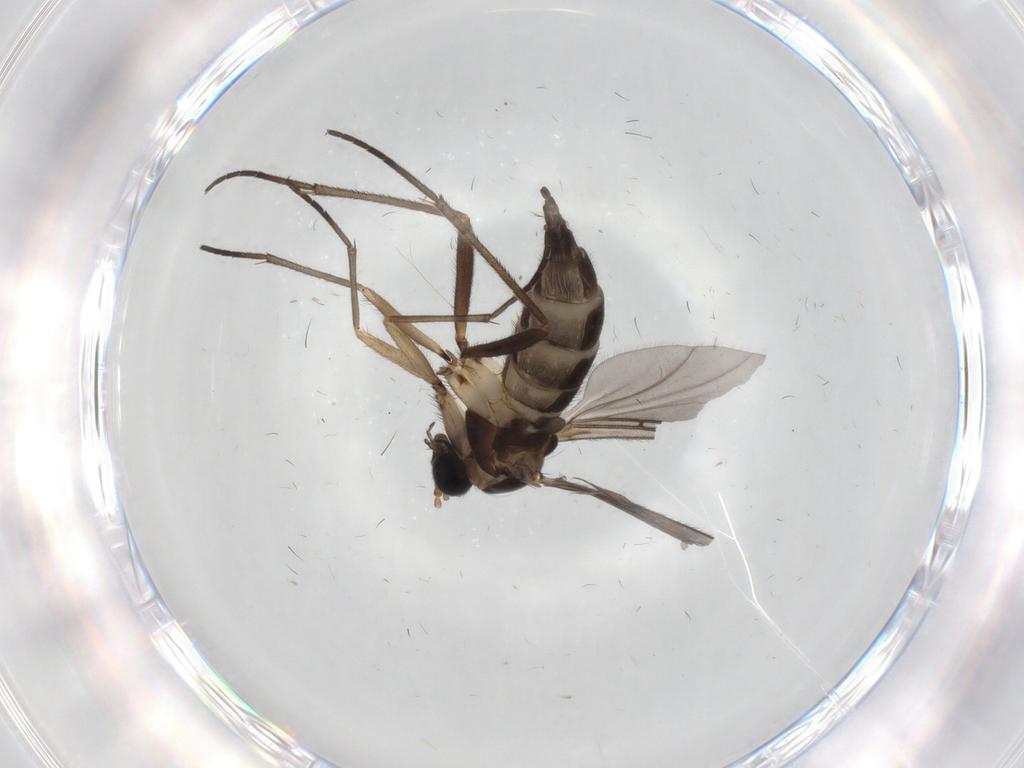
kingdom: Animalia
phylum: Arthropoda
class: Insecta
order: Diptera
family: Sciaridae
